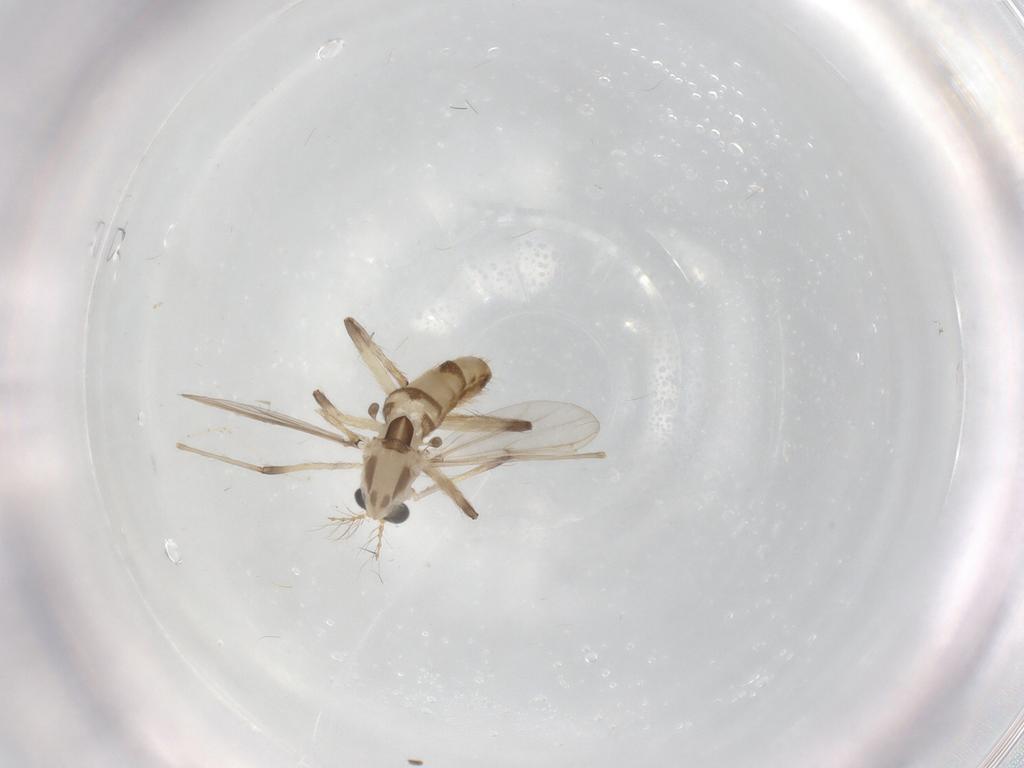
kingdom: Animalia
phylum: Arthropoda
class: Insecta
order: Diptera
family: Chironomidae
